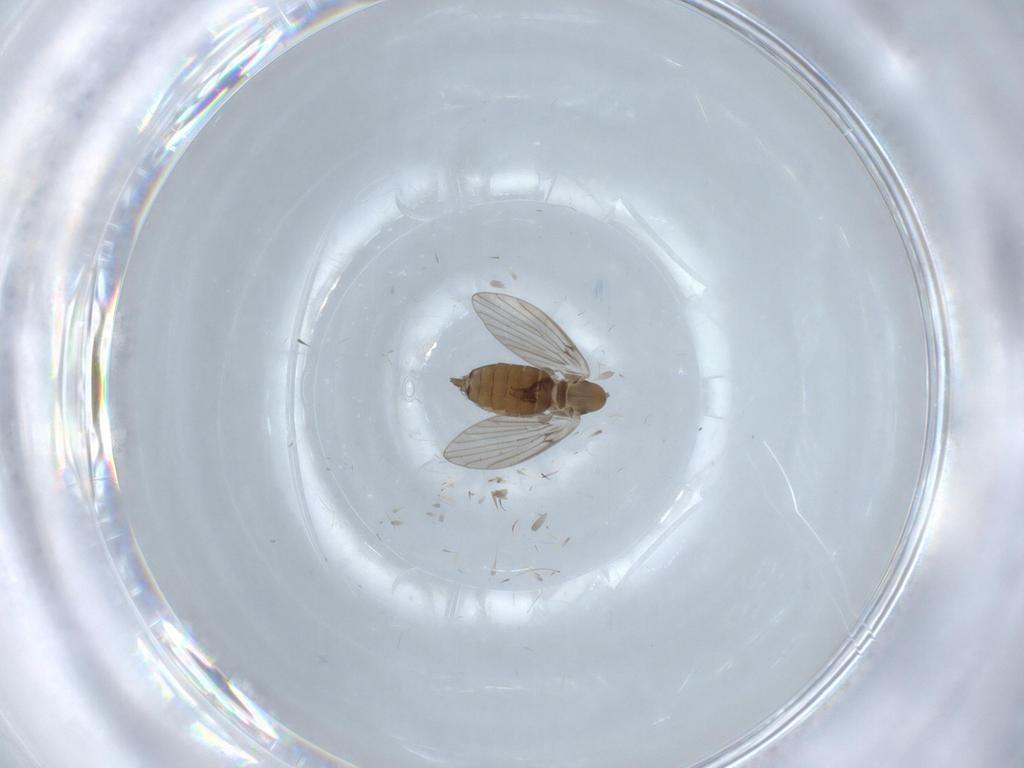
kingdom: Animalia
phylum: Arthropoda
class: Insecta
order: Diptera
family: Psychodidae
